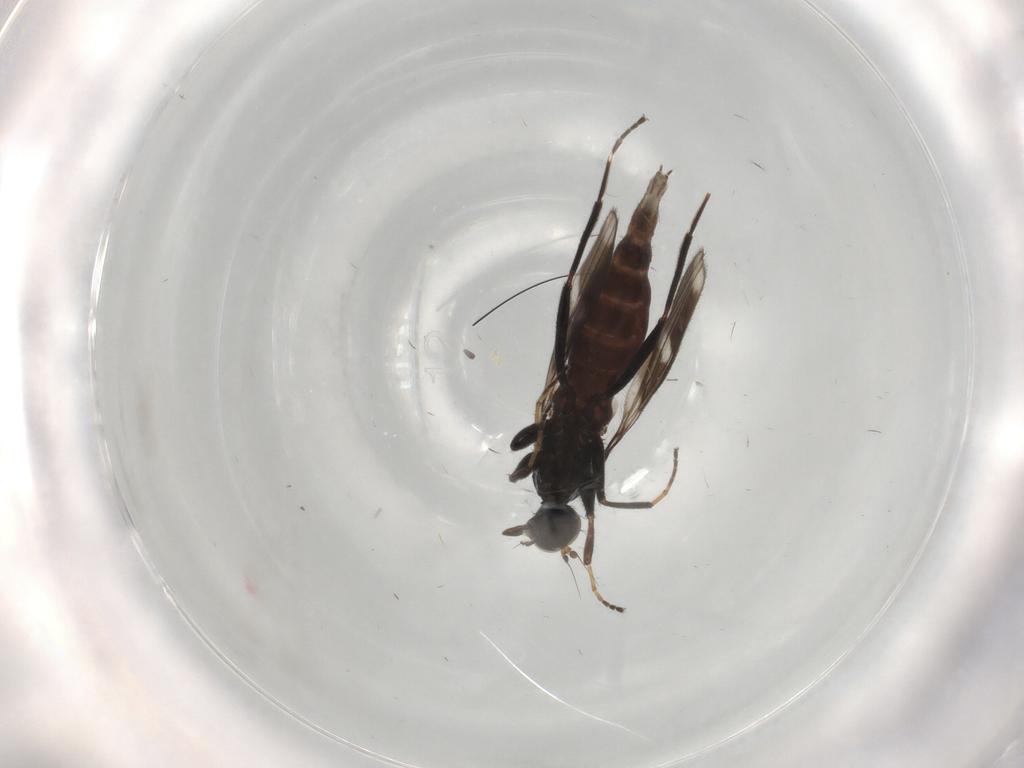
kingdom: Animalia
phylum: Arthropoda
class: Insecta
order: Diptera
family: Hybotidae
